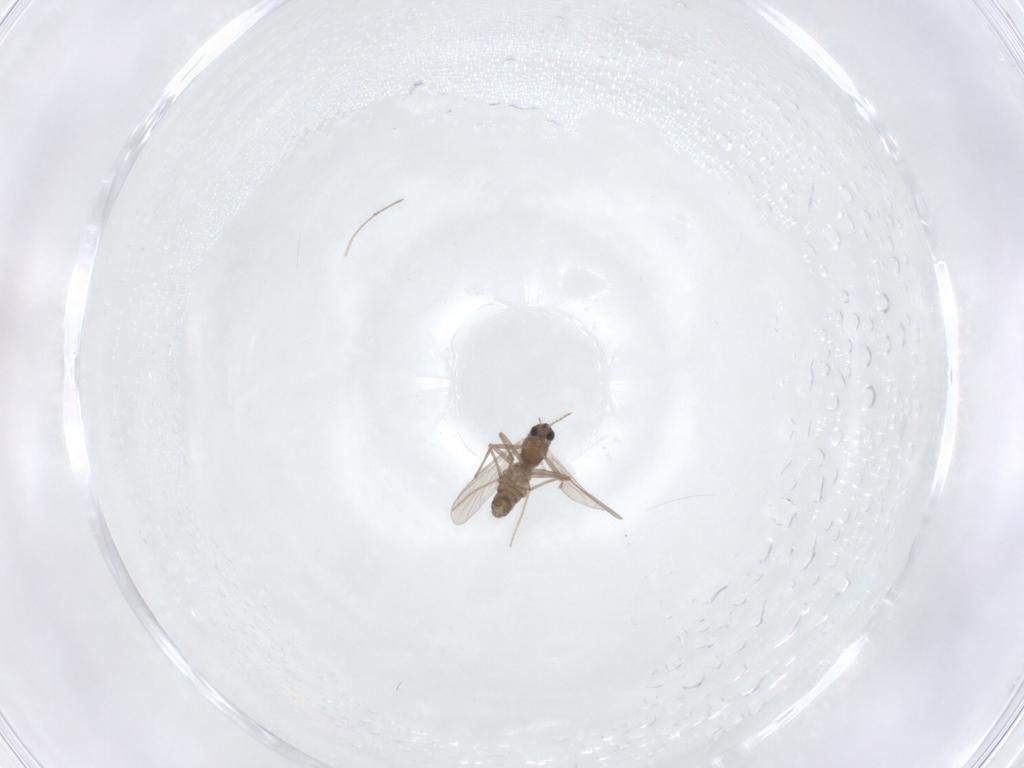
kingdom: Animalia
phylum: Arthropoda
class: Insecta
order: Diptera
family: Chironomidae
